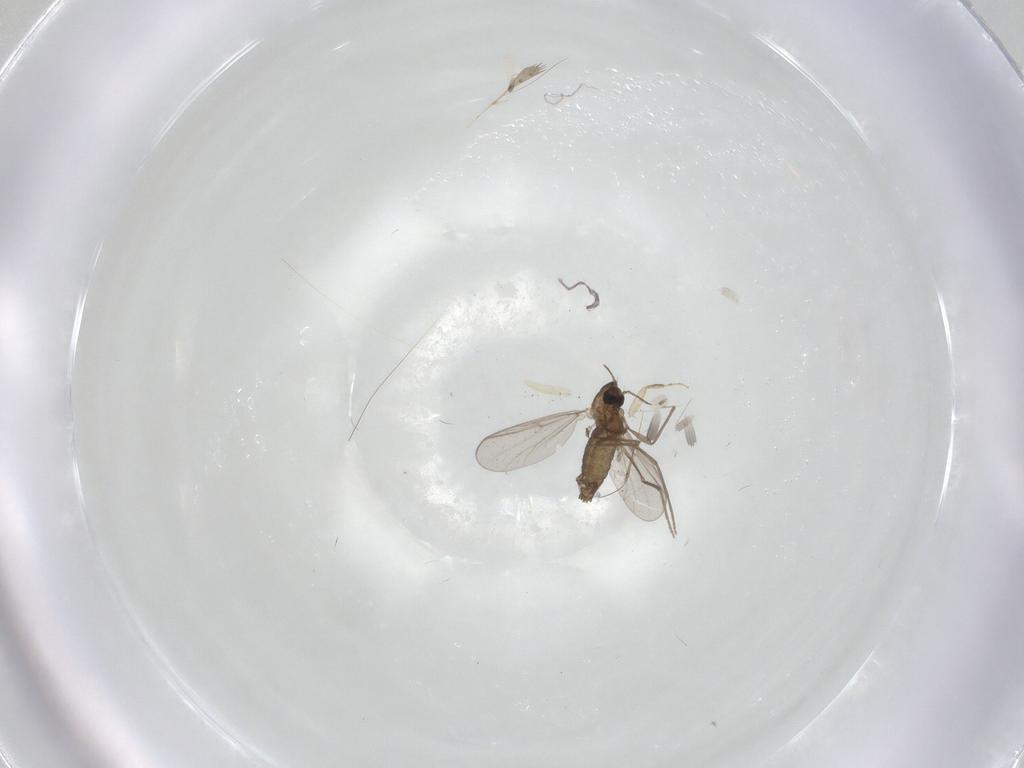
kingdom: Animalia
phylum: Arthropoda
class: Insecta
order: Diptera
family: Chironomidae
